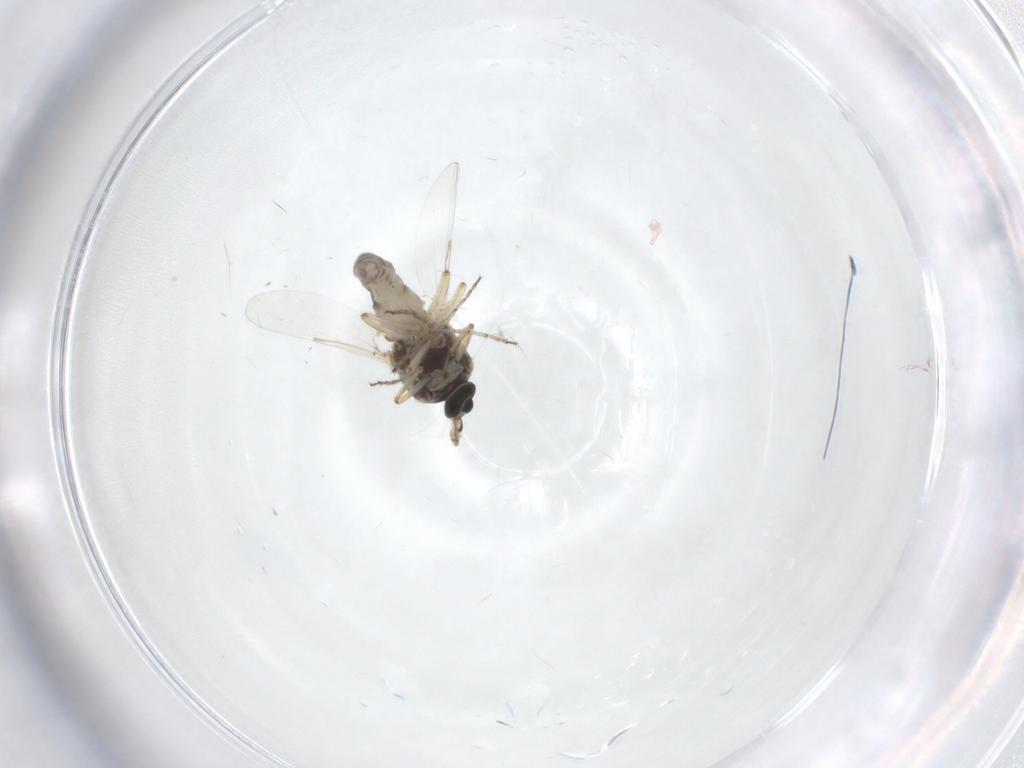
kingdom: Animalia
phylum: Arthropoda
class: Insecta
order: Diptera
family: Ceratopogonidae
